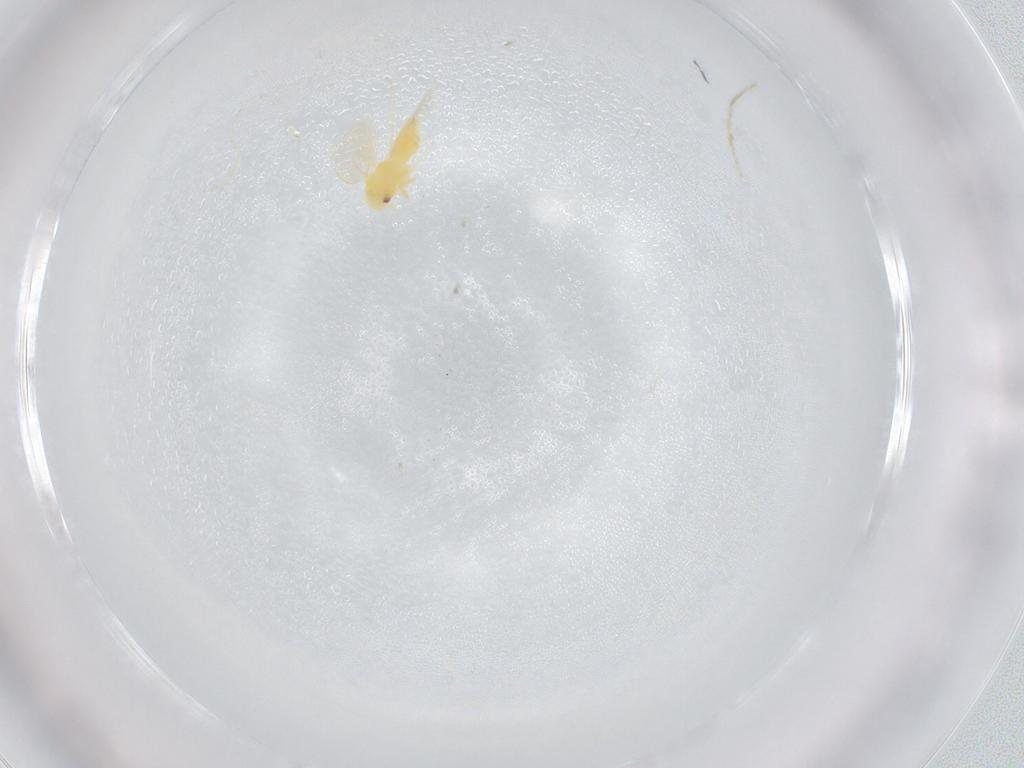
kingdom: Animalia
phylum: Arthropoda
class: Insecta
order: Hemiptera
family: Aleyrodidae
